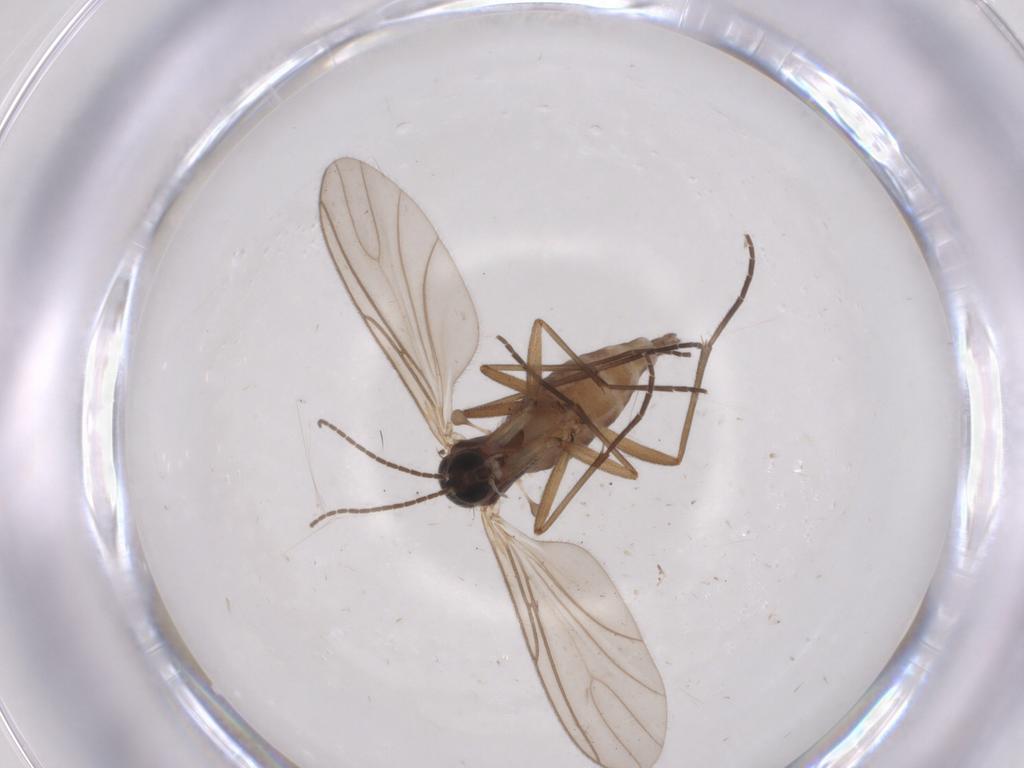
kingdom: Animalia
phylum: Arthropoda
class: Insecta
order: Diptera
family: Sciaridae
